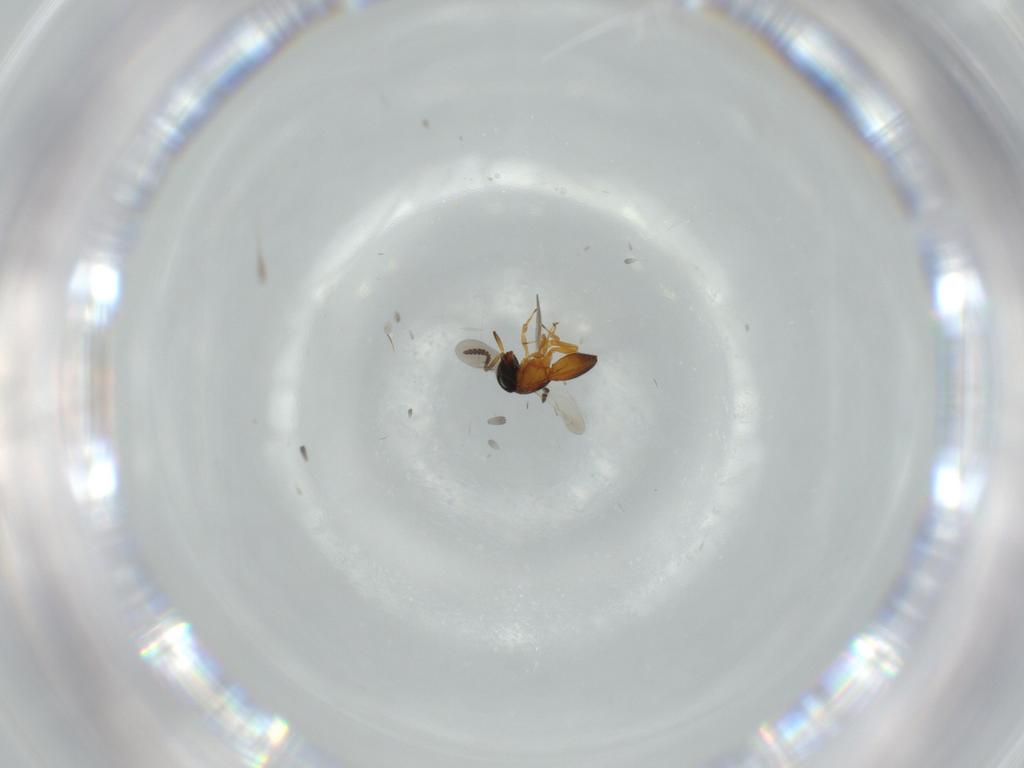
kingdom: Animalia
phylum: Arthropoda
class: Insecta
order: Hymenoptera
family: Scelionidae
